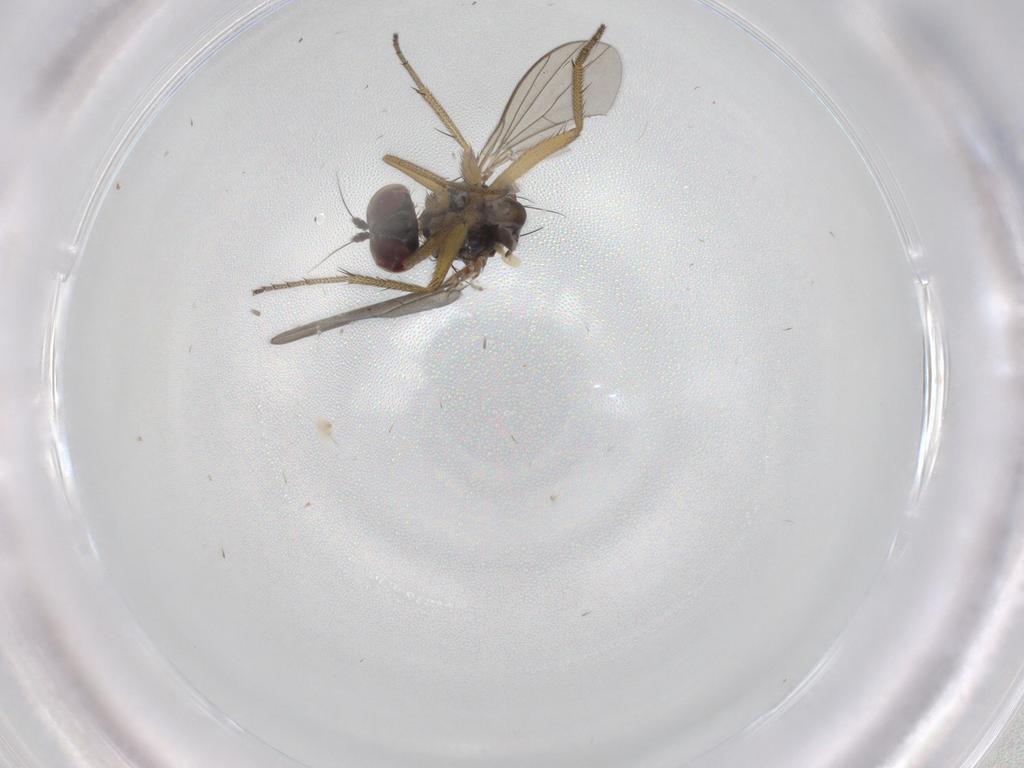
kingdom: Animalia
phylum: Arthropoda
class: Insecta
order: Diptera
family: Dolichopodidae
